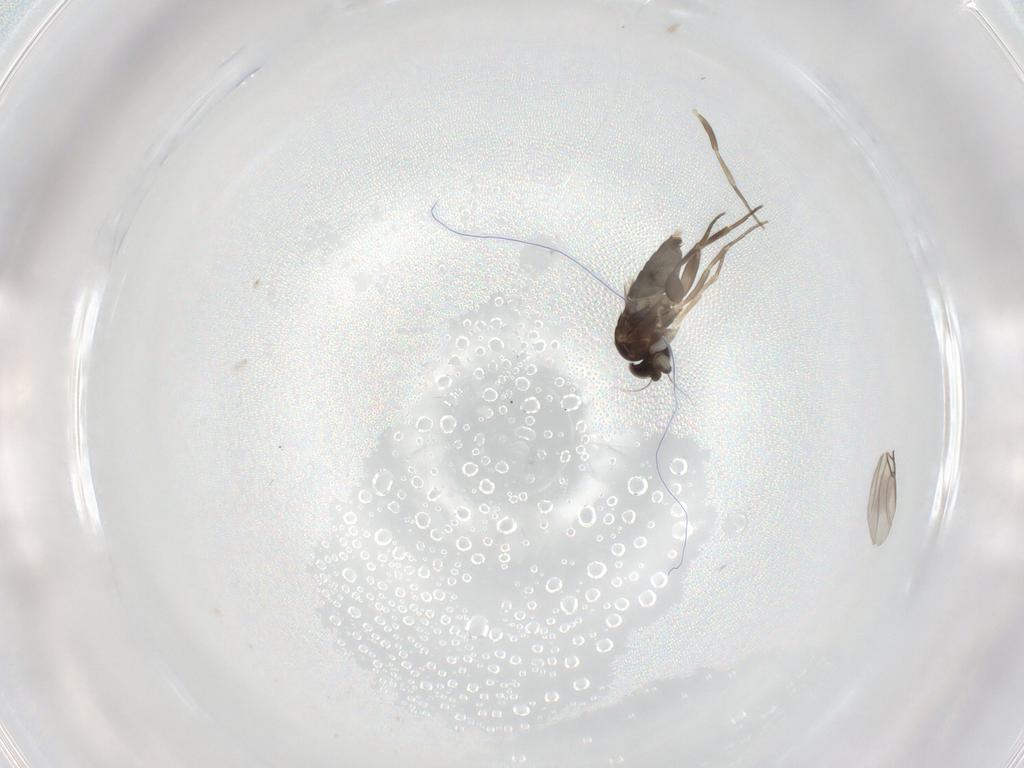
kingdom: Animalia
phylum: Arthropoda
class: Insecta
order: Diptera
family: Phoridae
